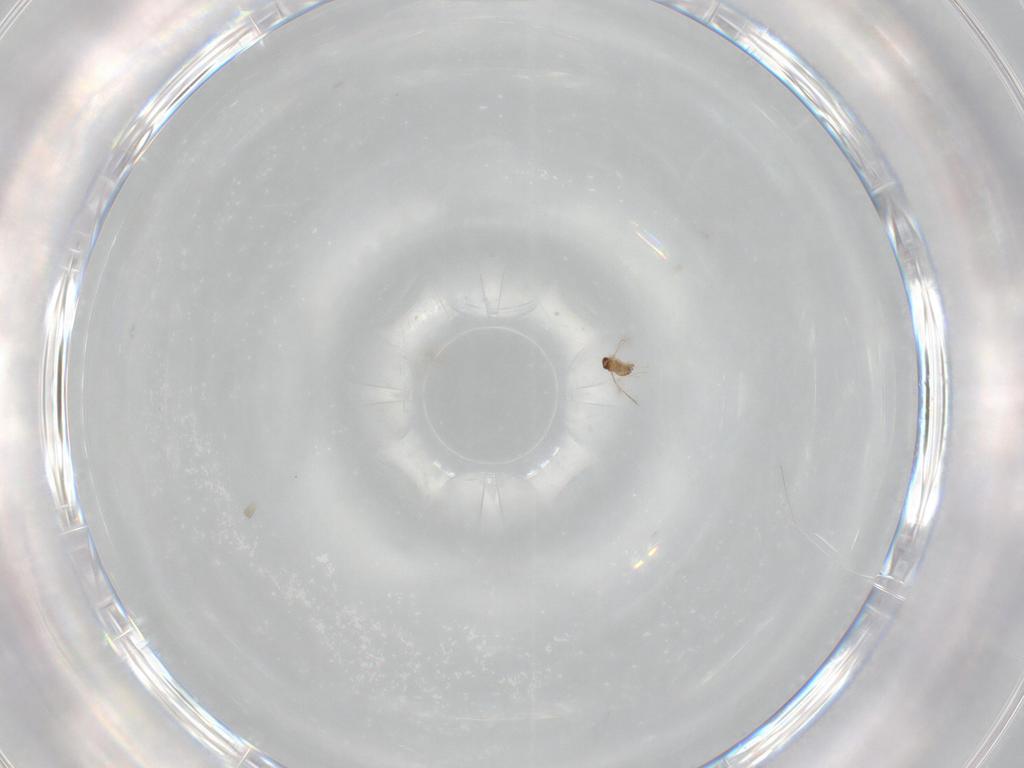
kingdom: Animalia
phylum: Arthropoda
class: Insecta
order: Hymenoptera
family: Mymaridae
